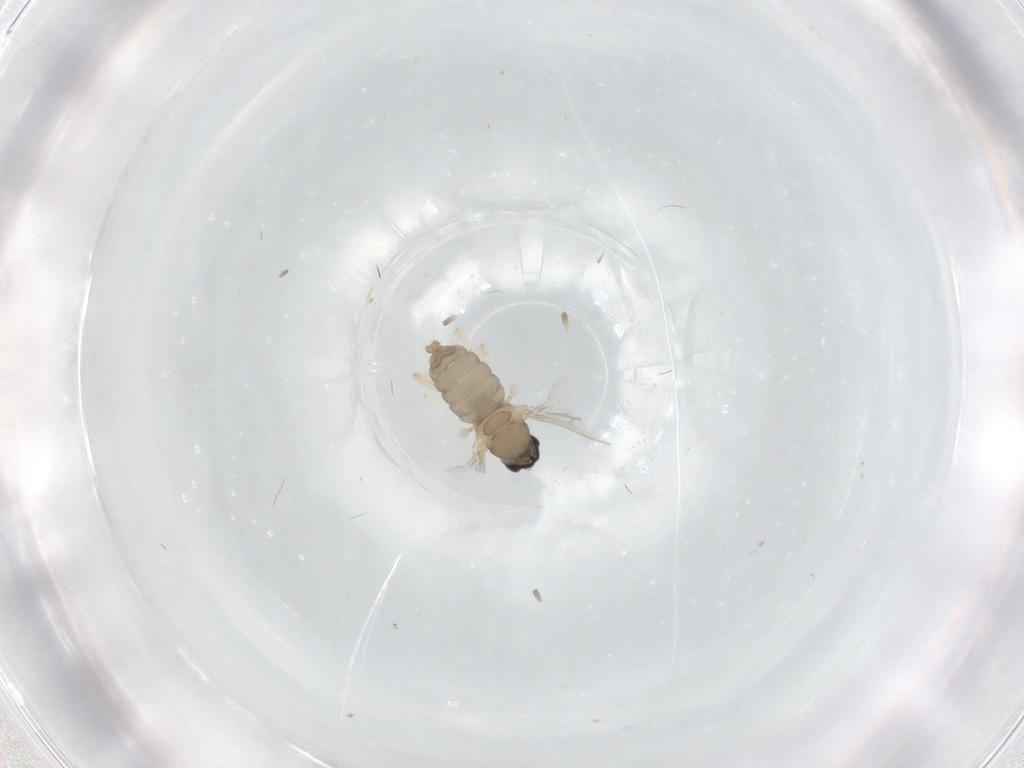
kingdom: Animalia
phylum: Arthropoda
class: Insecta
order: Diptera
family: Cecidomyiidae
